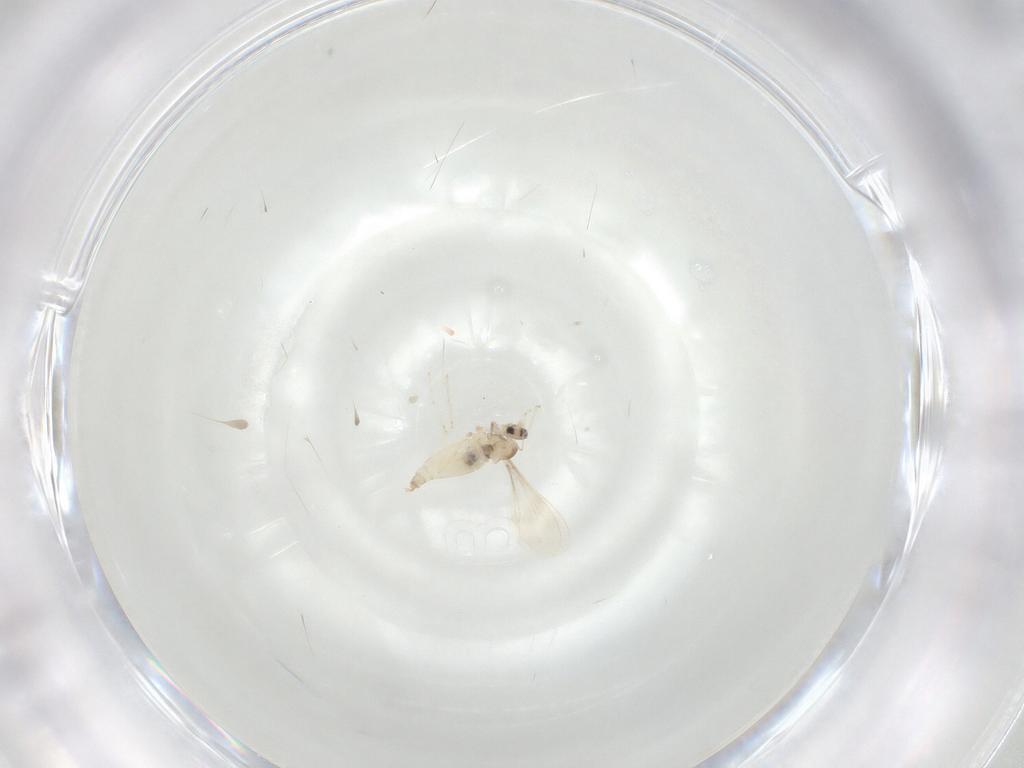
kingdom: Animalia
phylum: Arthropoda
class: Insecta
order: Diptera
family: Cecidomyiidae
